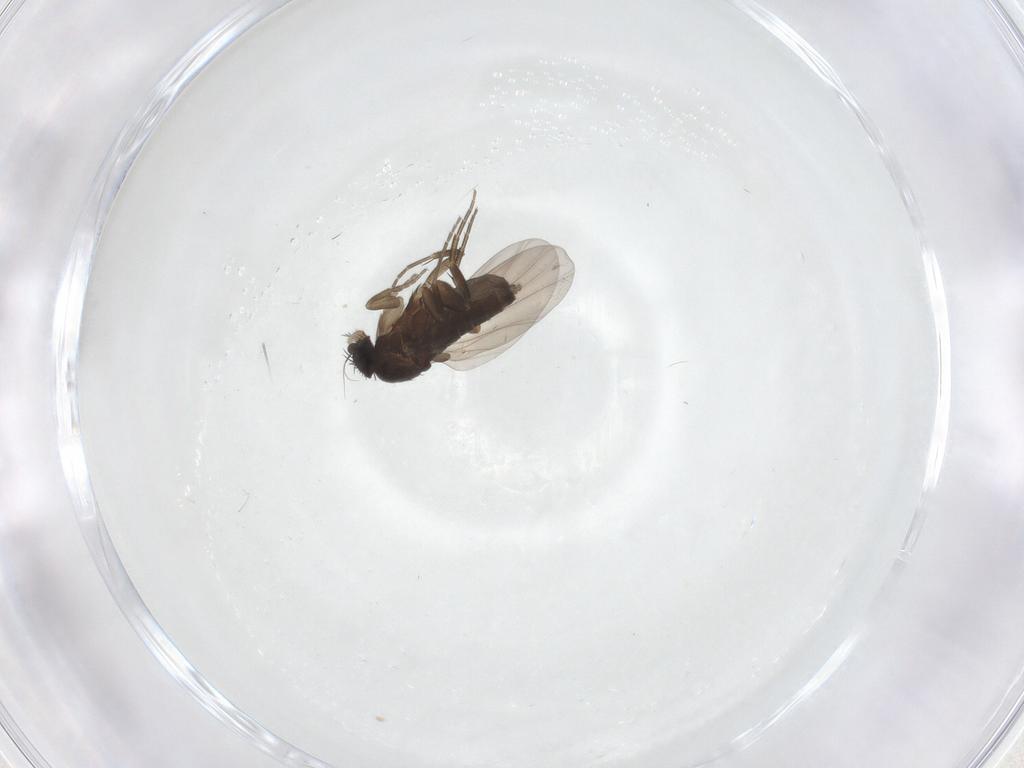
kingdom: Animalia
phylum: Arthropoda
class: Insecta
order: Diptera
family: Phoridae
